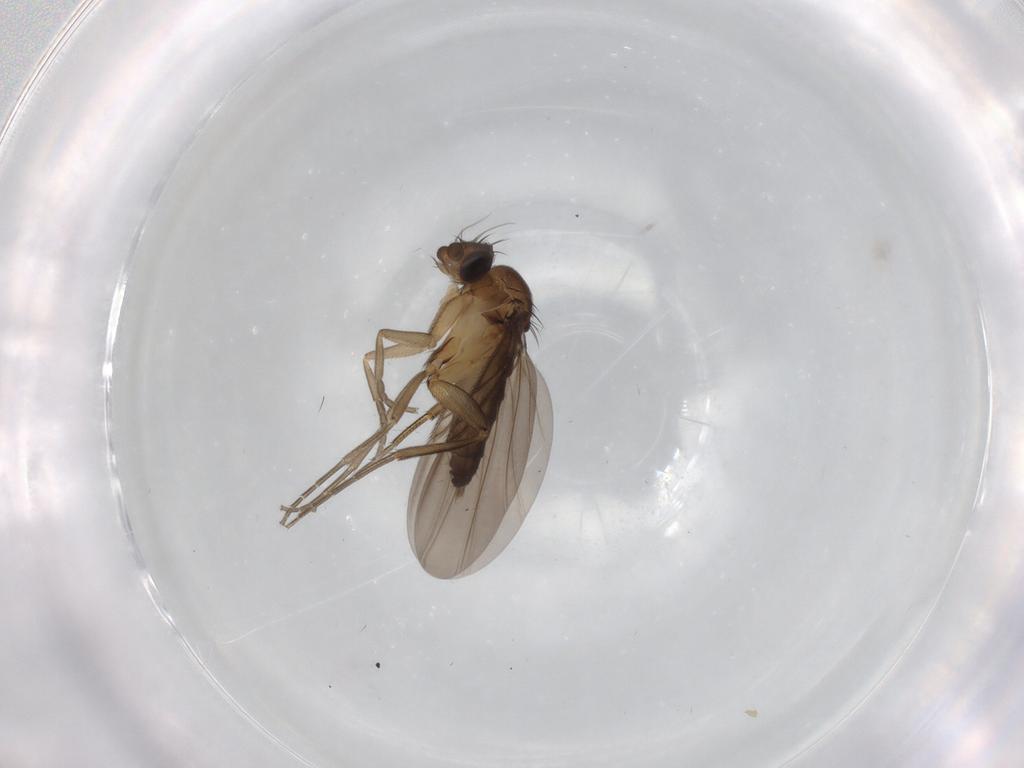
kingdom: Animalia
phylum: Arthropoda
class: Insecta
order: Diptera
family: Phoridae
